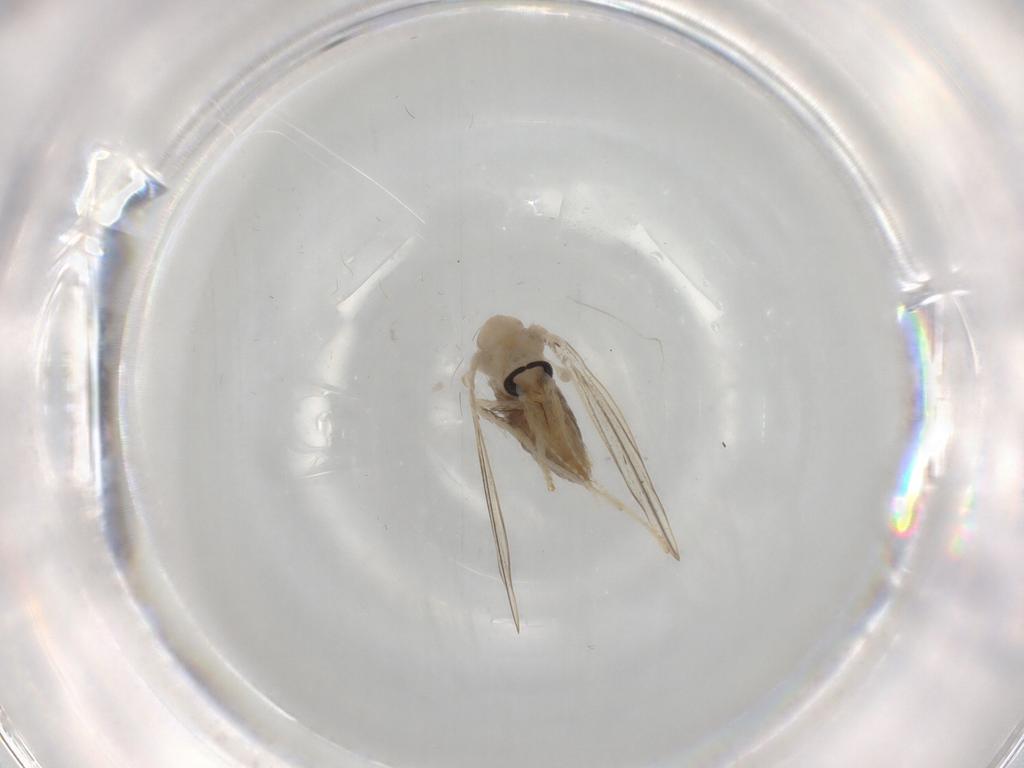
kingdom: Animalia
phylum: Arthropoda
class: Insecta
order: Diptera
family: Psychodidae
